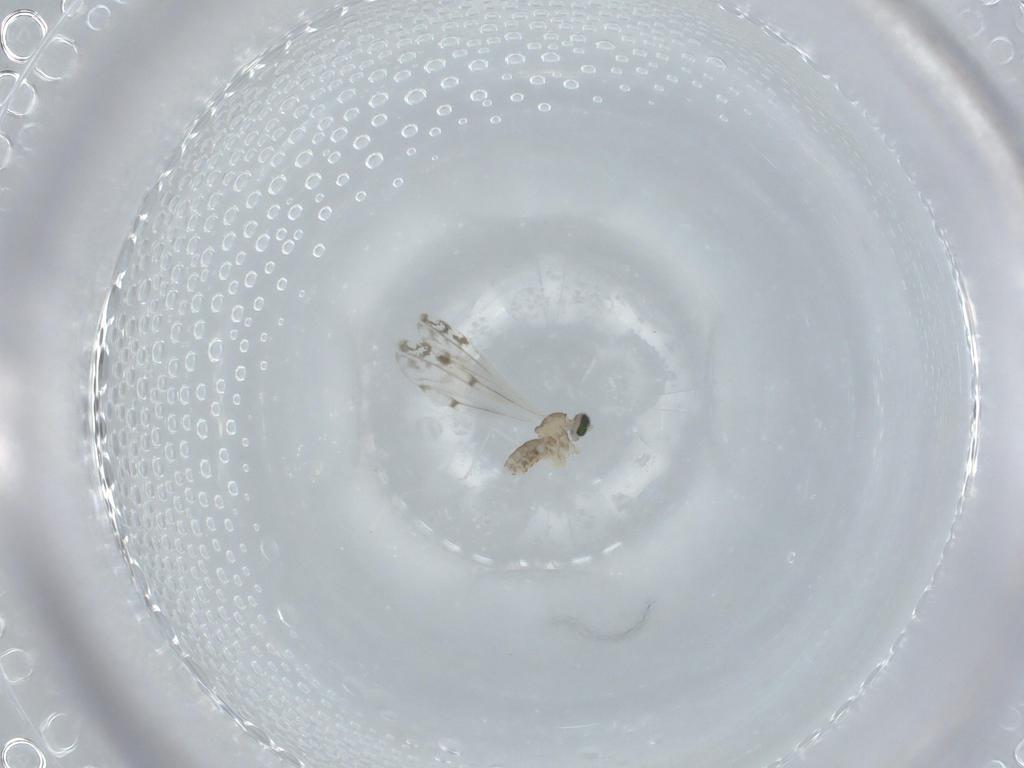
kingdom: Animalia
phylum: Arthropoda
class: Insecta
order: Diptera
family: Cecidomyiidae
